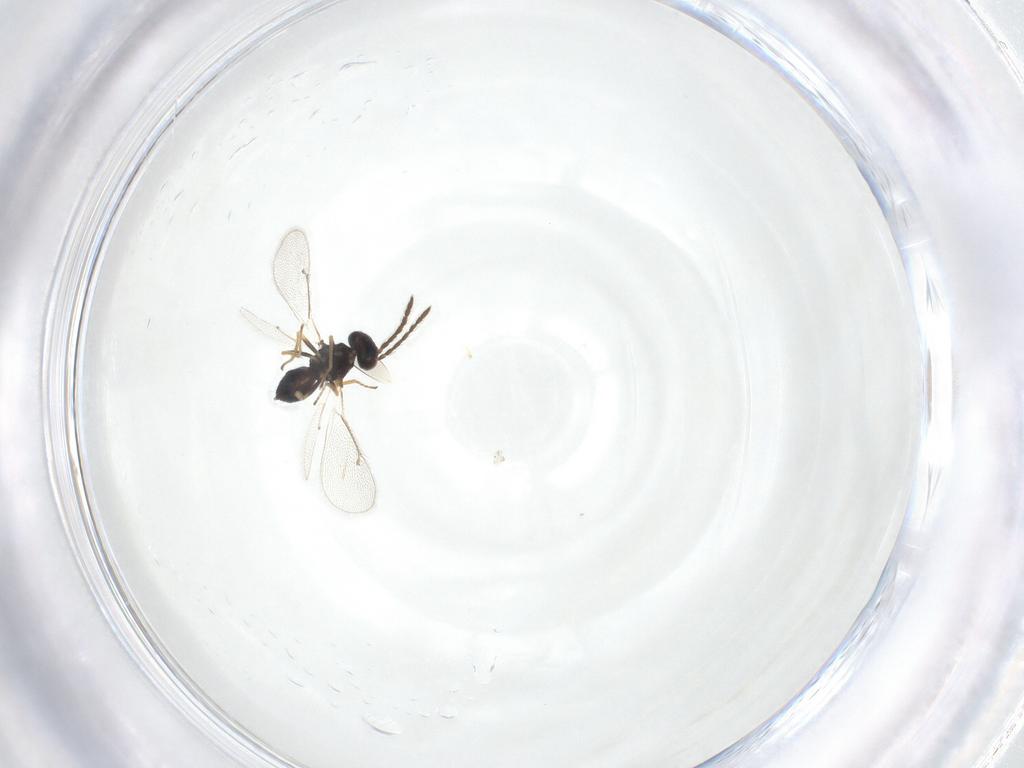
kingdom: Animalia
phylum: Arthropoda
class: Insecta
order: Hymenoptera
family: Eulophidae
